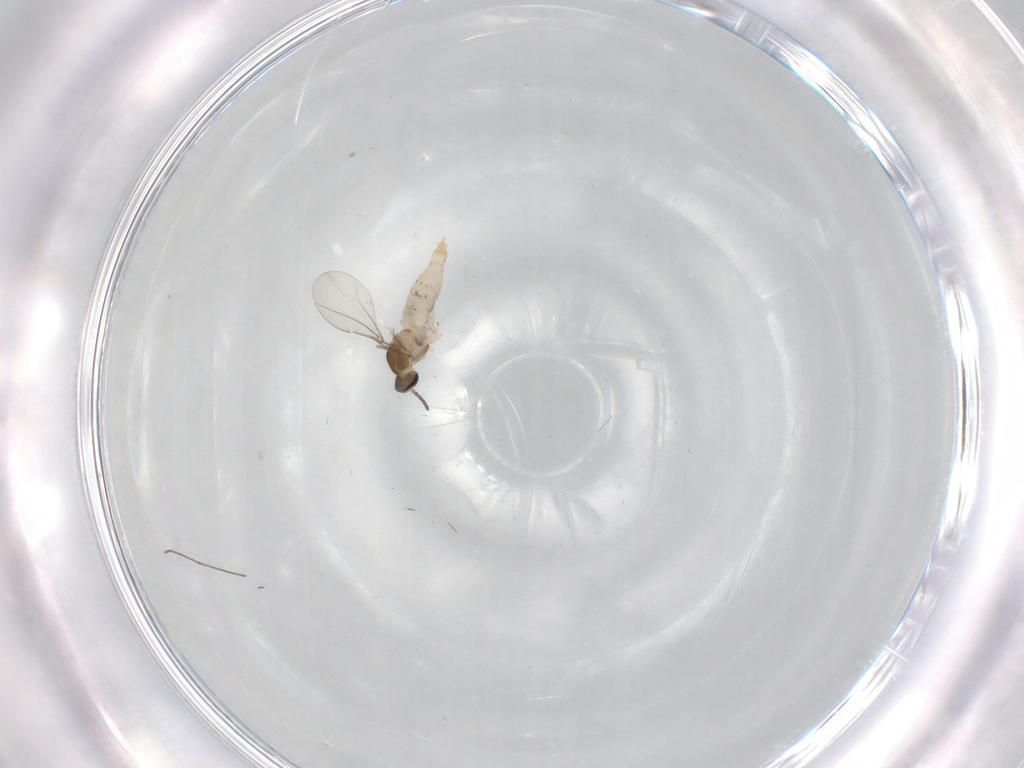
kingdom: Animalia
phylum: Arthropoda
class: Insecta
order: Diptera
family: Cecidomyiidae
